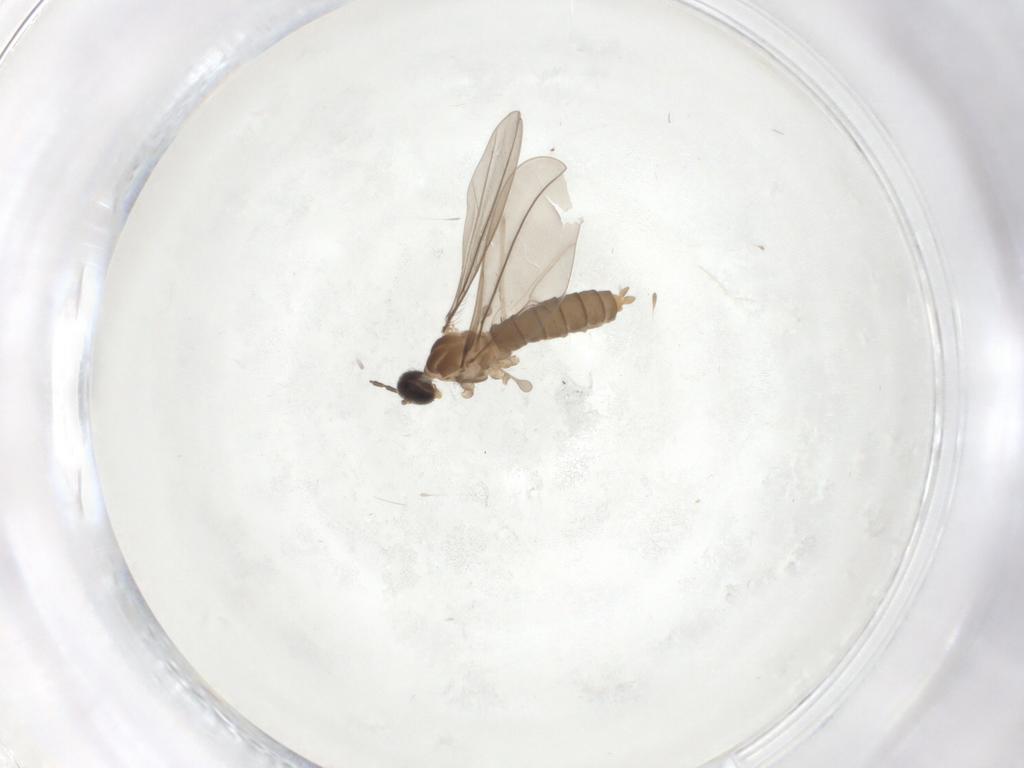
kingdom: Animalia
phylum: Arthropoda
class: Insecta
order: Diptera
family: Cecidomyiidae
